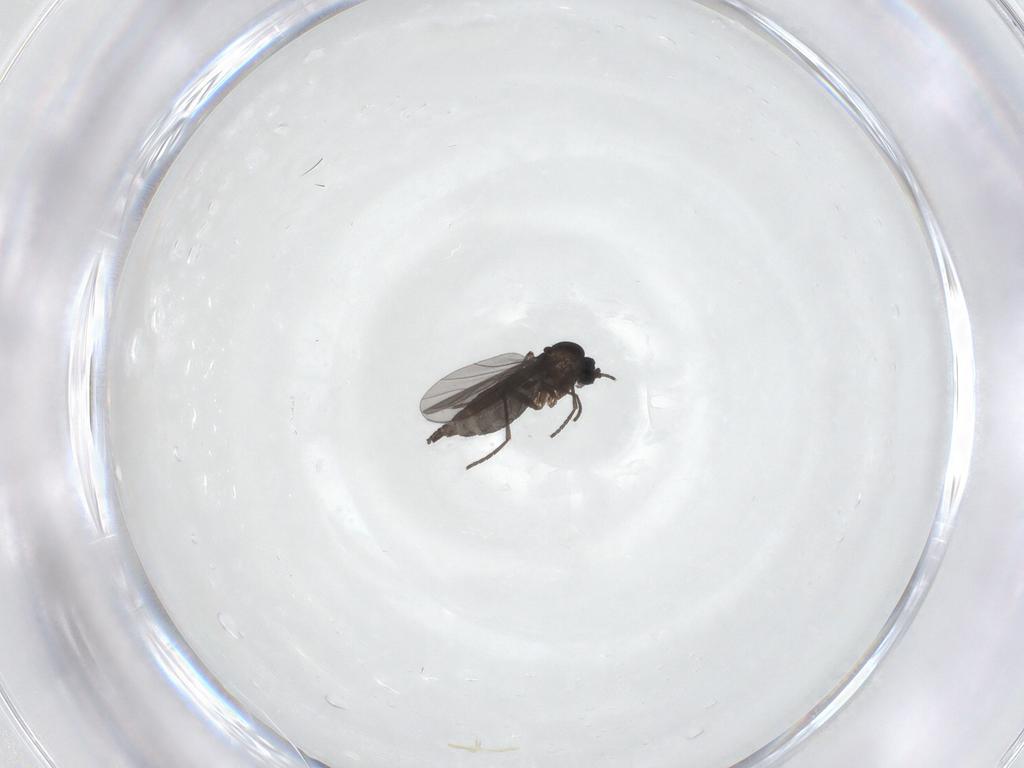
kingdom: Animalia
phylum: Arthropoda
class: Insecta
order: Diptera
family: Sciaridae
